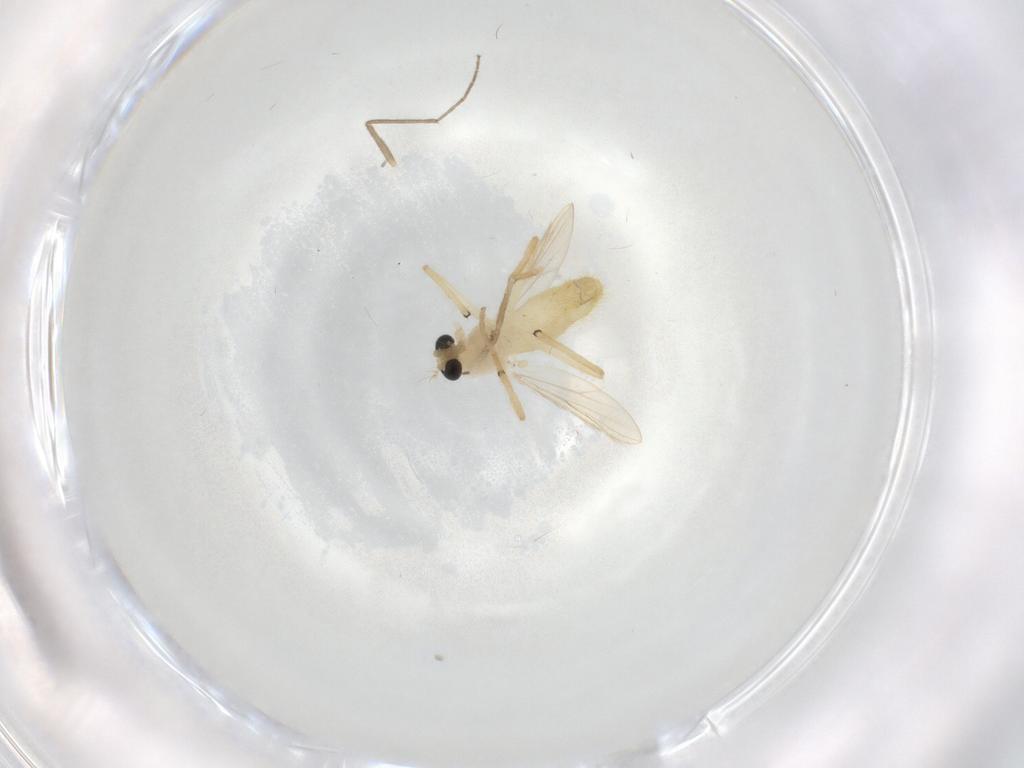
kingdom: Animalia
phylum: Arthropoda
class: Insecta
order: Diptera
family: Chironomidae
